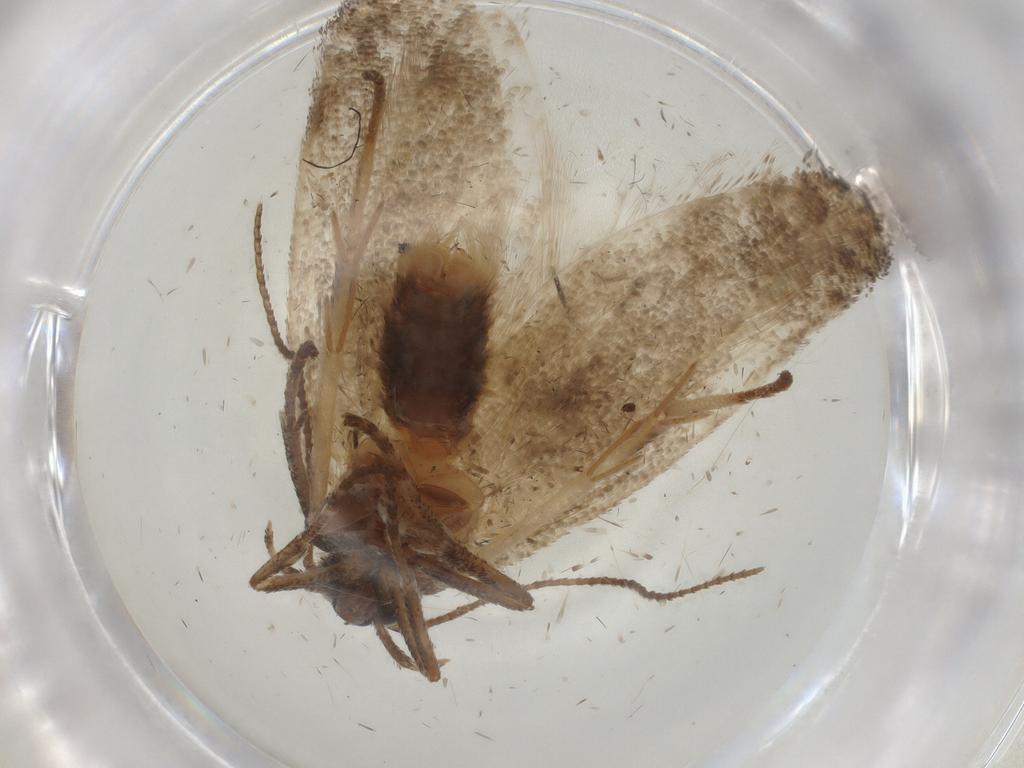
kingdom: Animalia
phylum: Arthropoda
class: Insecta
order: Lepidoptera
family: Cosmopterigidae
